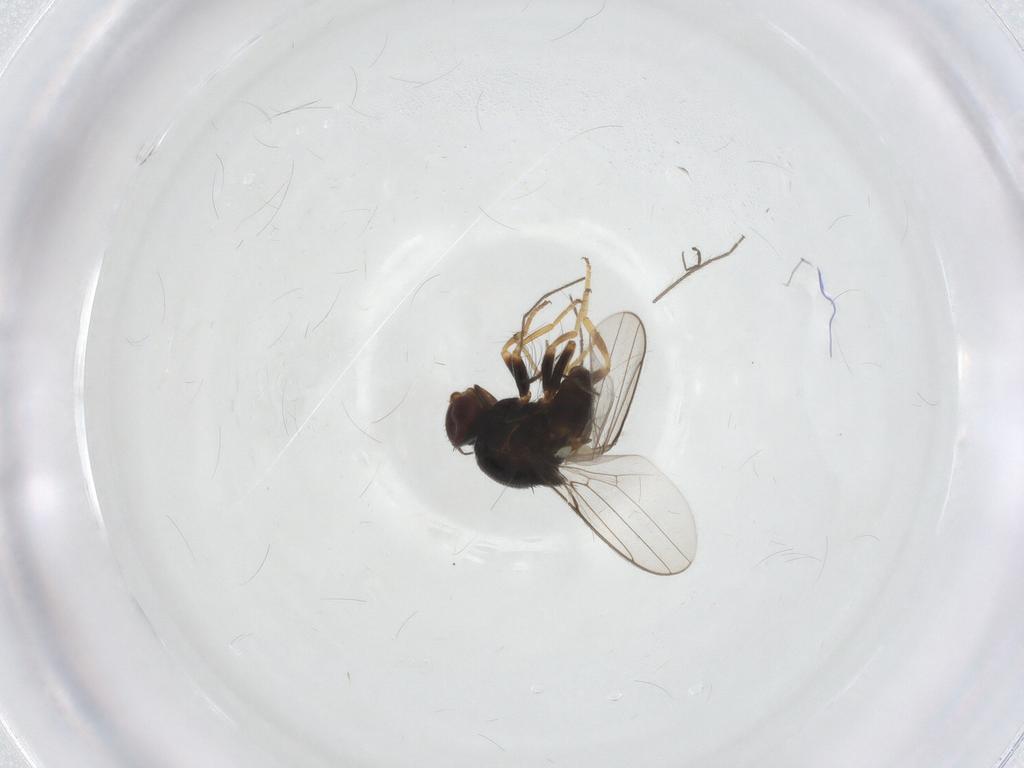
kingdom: Animalia
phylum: Arthropoda
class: Insecta
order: Diptera
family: Chloropidae
